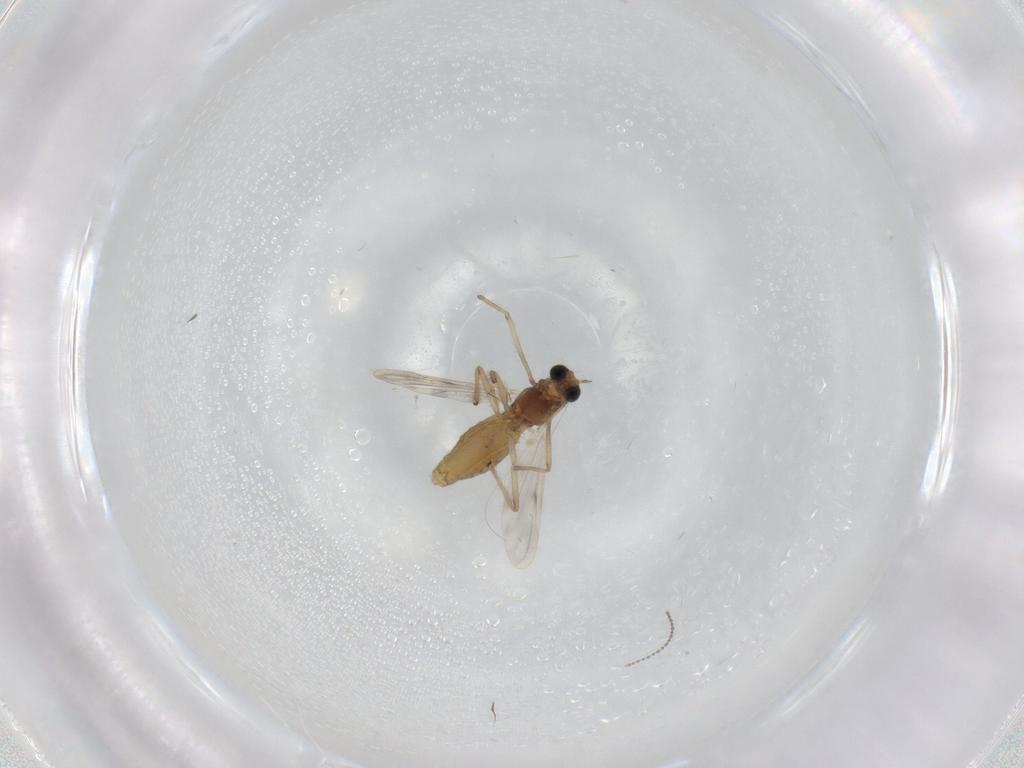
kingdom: Animalia
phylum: Arthropoda
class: Insecta
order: Diptera
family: Chironomidae
